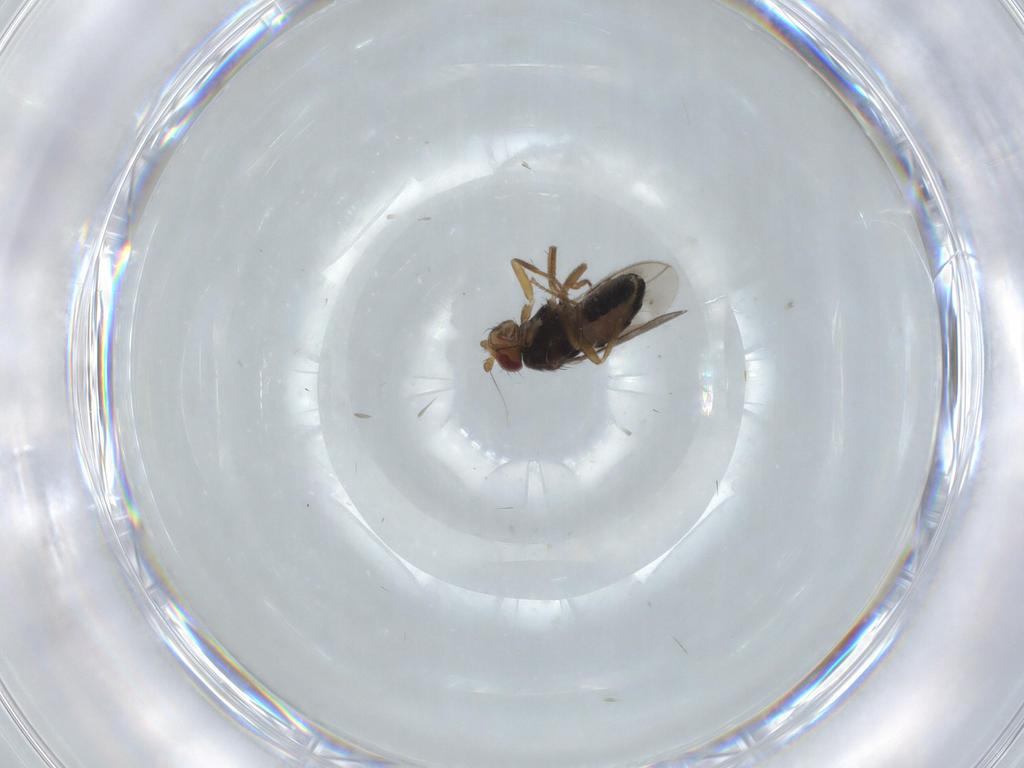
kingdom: Animalia
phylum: Arthropoda
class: Insecta
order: Diptera
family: Sphaeroceridae
